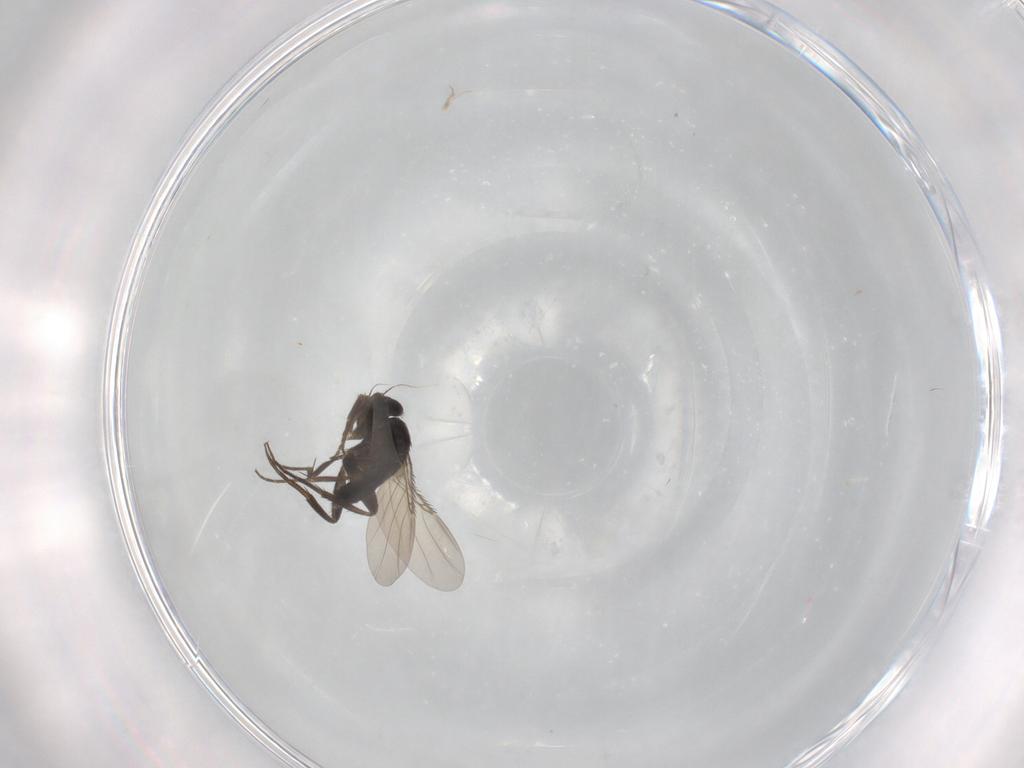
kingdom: Animalia
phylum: Arthropoda
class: Insecta
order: Diptera
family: Phoridae
